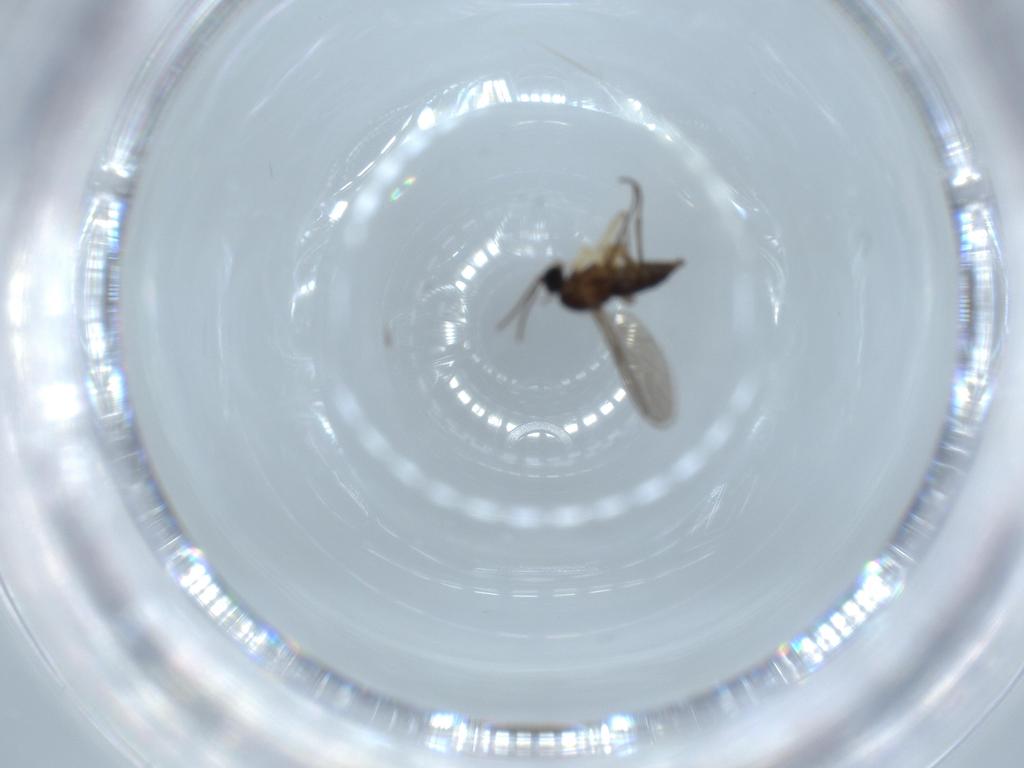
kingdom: Animalia
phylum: Arthropoda
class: Insecta
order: Diptera
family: Sciaridae
